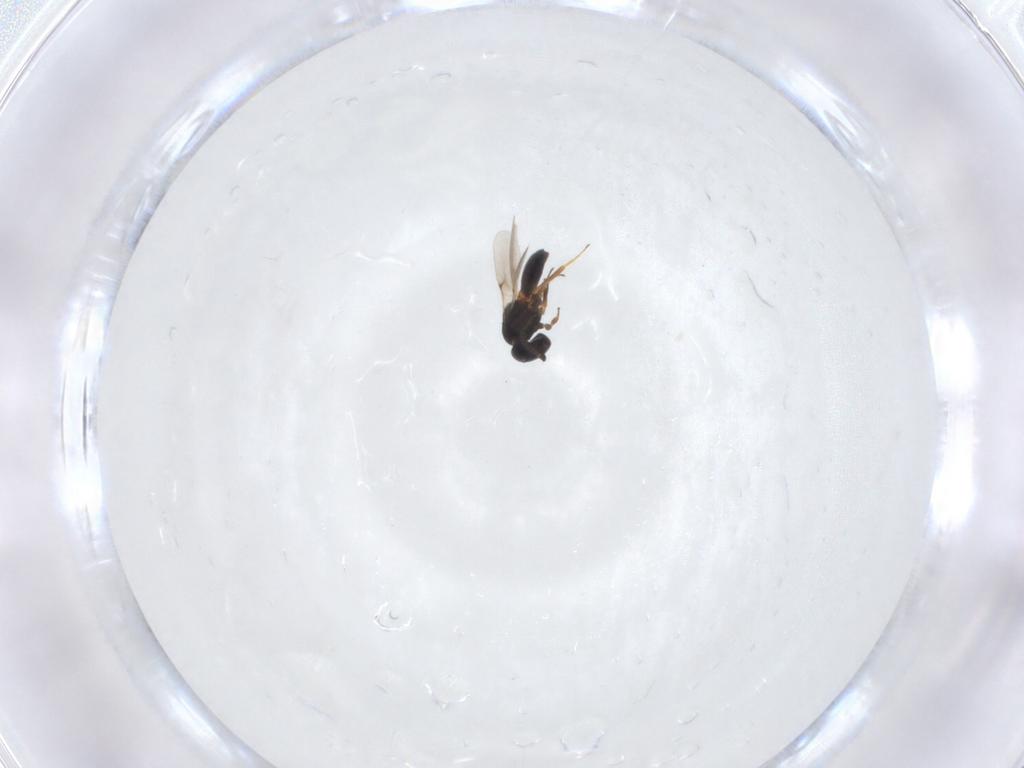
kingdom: Animalia
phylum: Arthropoda
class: Insecta
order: Hymenoptera
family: Scelionidae
